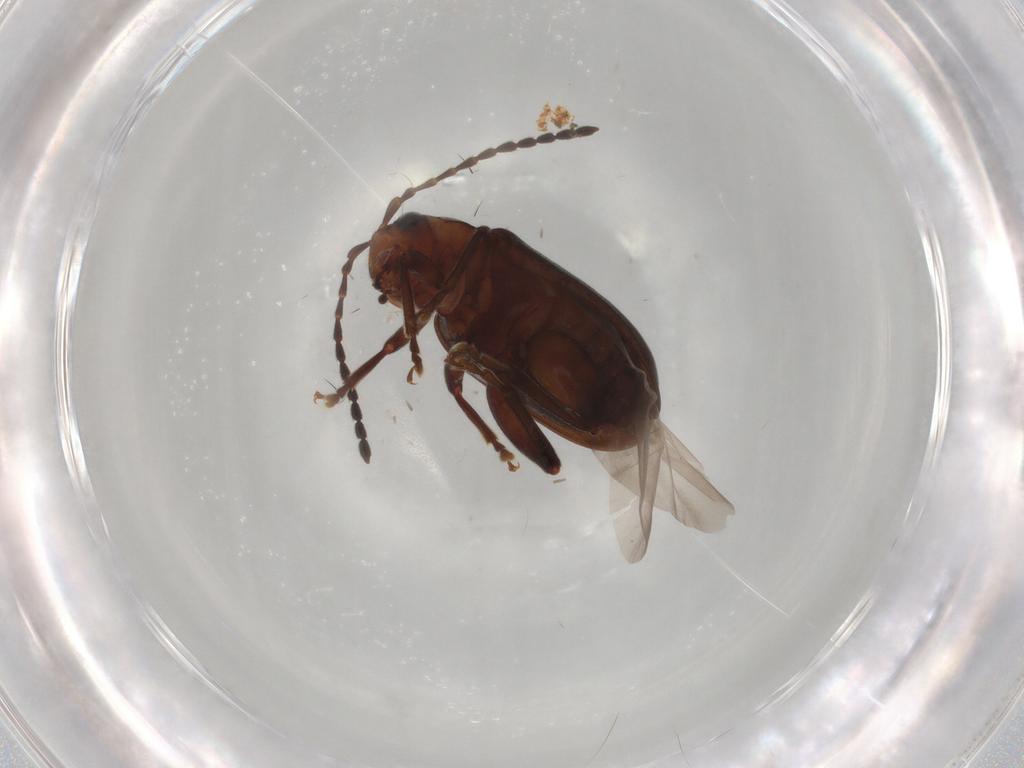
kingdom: Animalia
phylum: Arthropoda
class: Insecta
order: Coleoptera
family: Chrysomelidae
